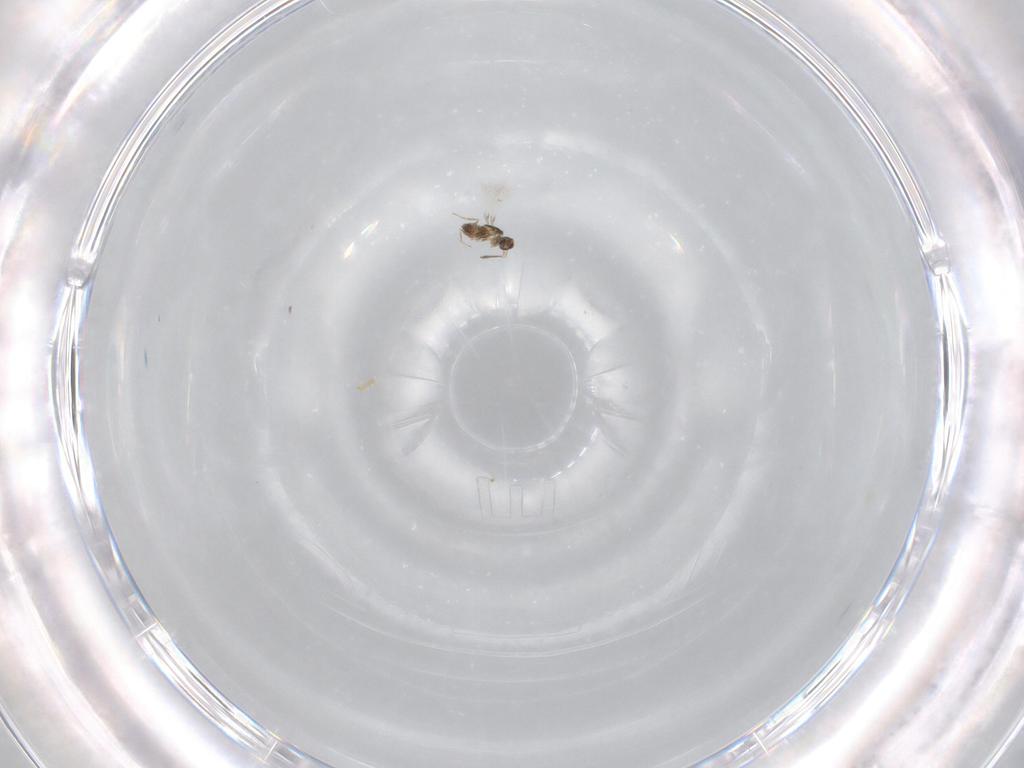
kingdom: Animalia
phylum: Arthropoda
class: Insecta
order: Hymenoptera
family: Mymaridae
